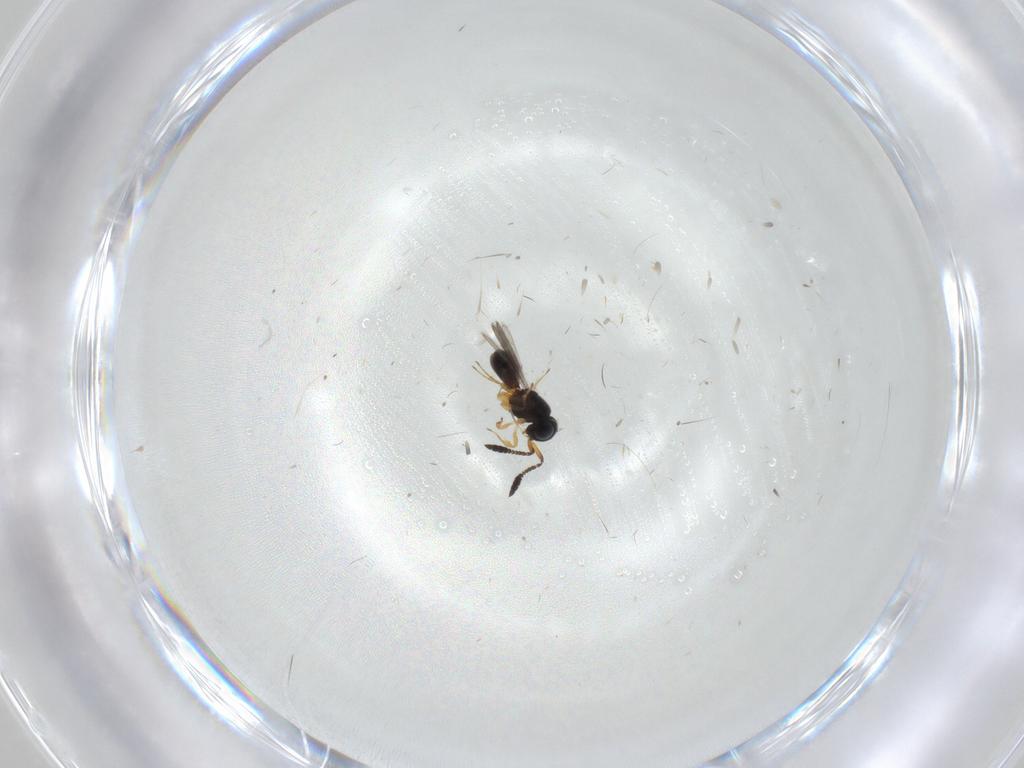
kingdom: Animalia
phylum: Arthropoda
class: Insecta
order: Hymenoptera
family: Scelionidae
